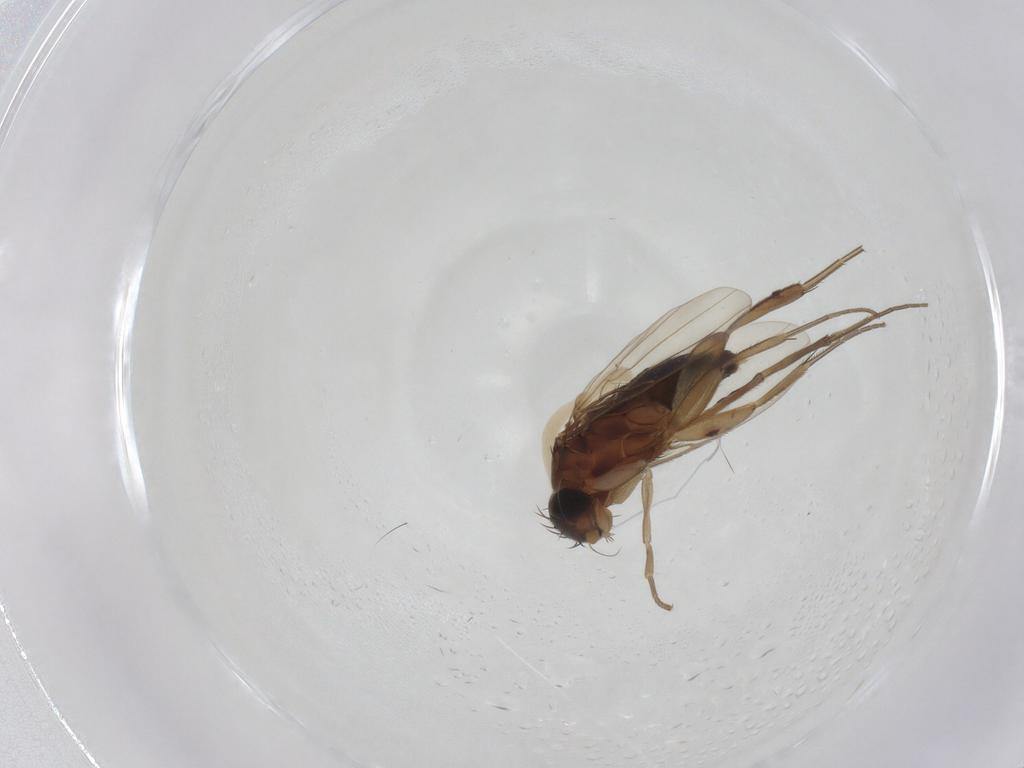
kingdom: Animalia
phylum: Arthropoda
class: Insecta
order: Diptera
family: Phoridae
